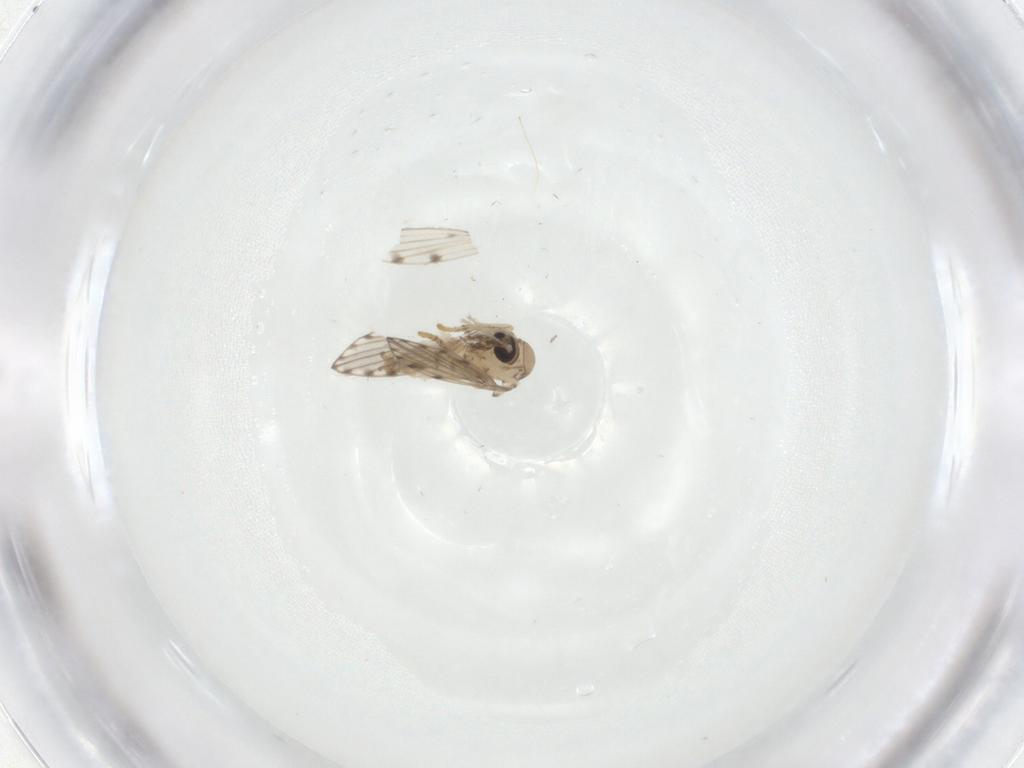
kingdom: Animalia
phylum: Arthropoda
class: Insecta
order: Diptera
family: Psychodidae
